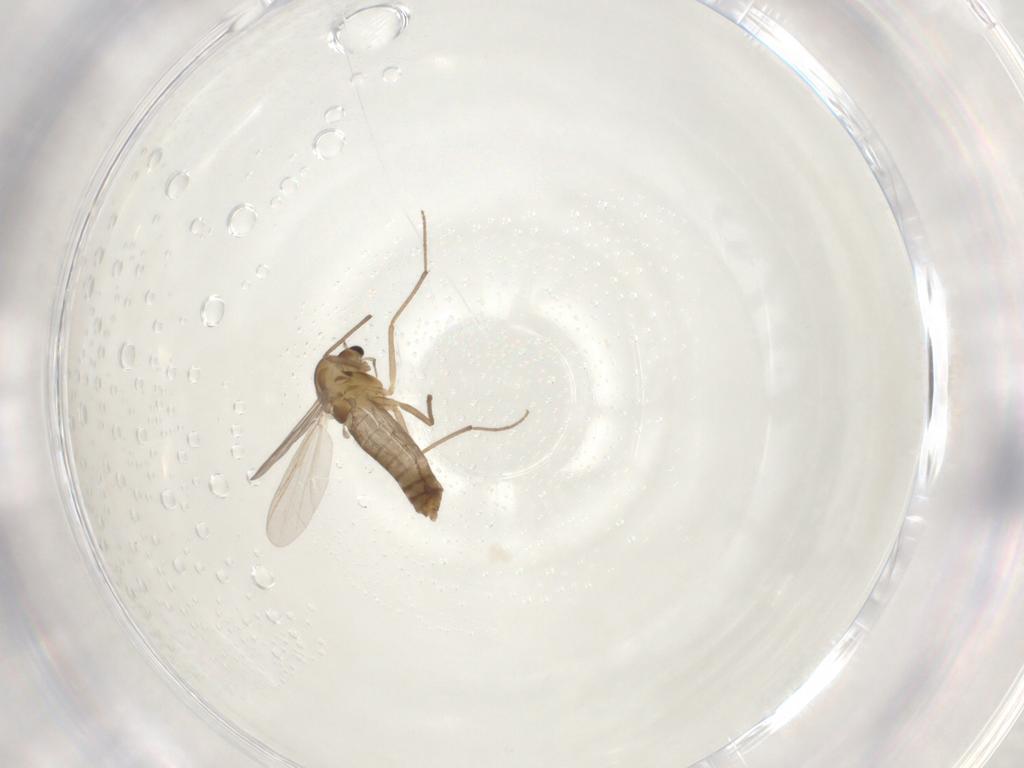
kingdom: Animalia
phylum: Arthropoda
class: Insecta
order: Diptera
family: Chironomidae
